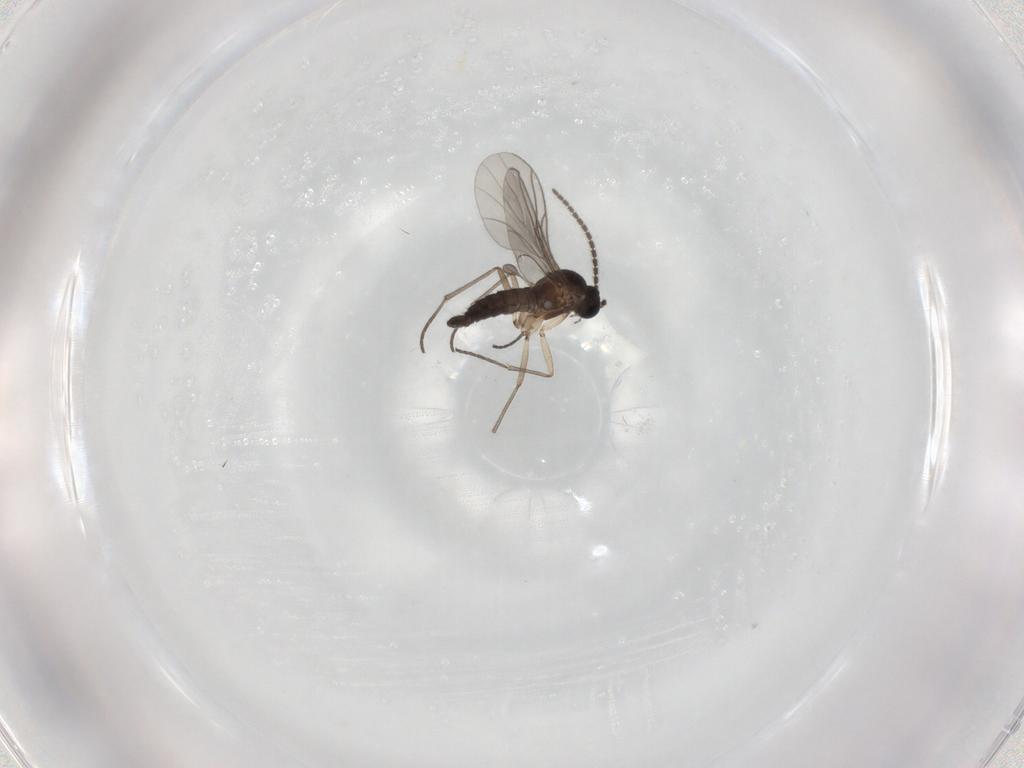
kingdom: Animalia
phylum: Arthropoda
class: Insecta
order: Diptera
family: Sciaridae
